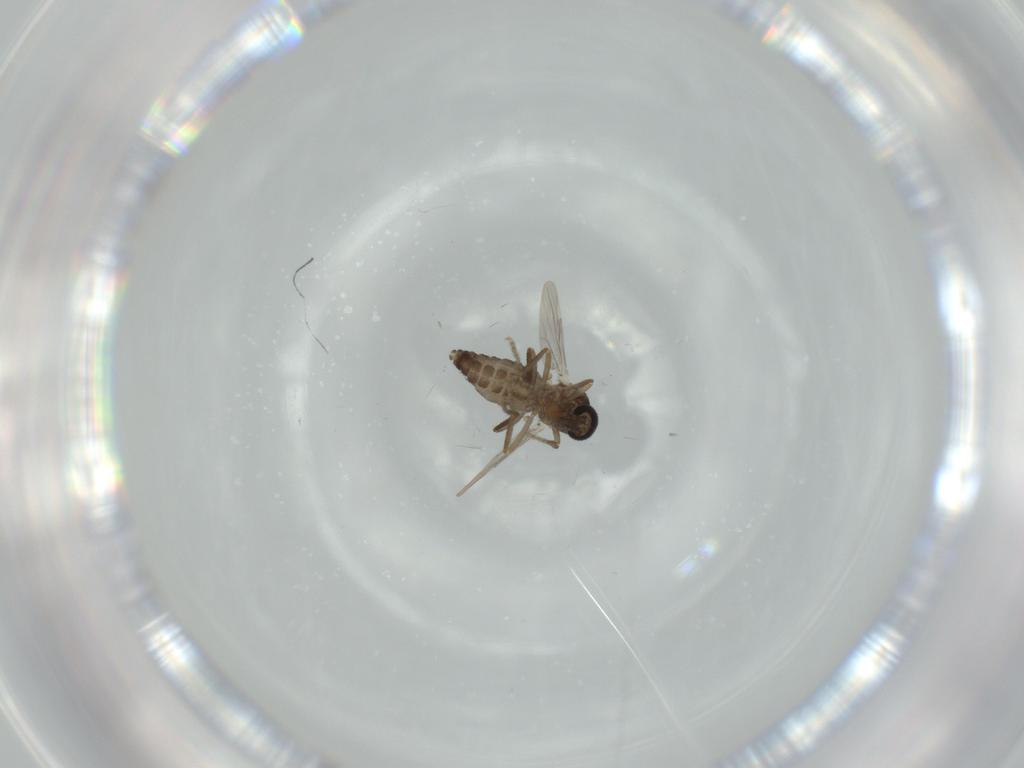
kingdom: Animalia
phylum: Arthropoda
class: Insecta
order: Diptera
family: Ceratopogonidae
